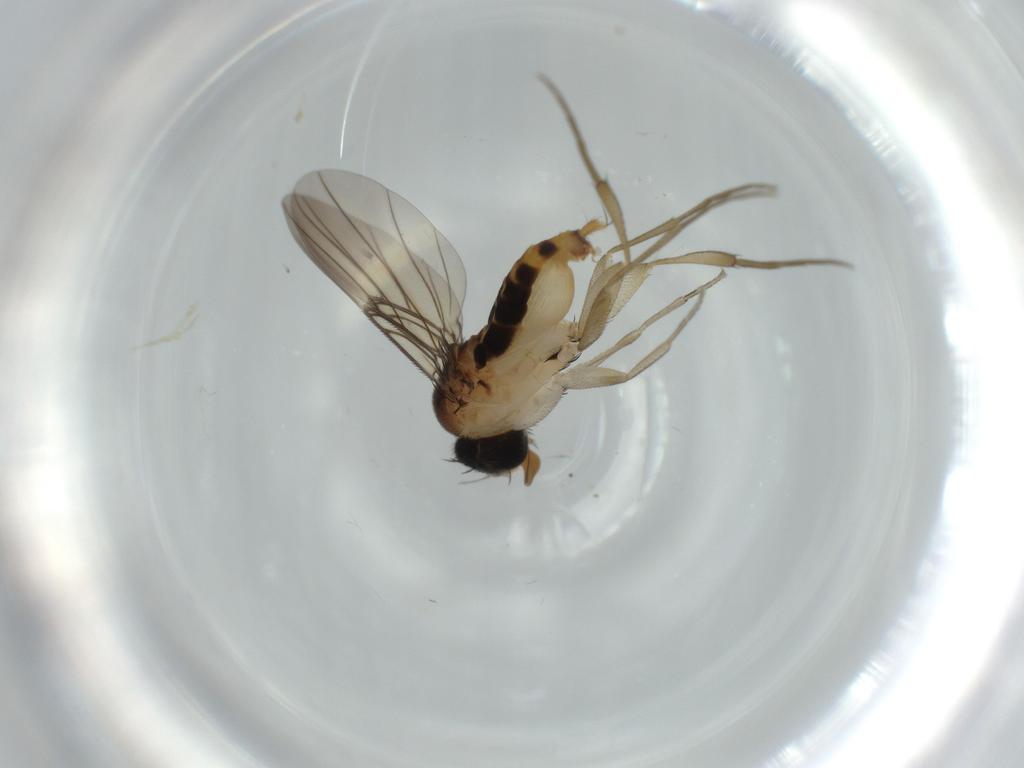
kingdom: Animalia
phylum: Arthropoda
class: Insecta
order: Diptera
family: Phoridae
